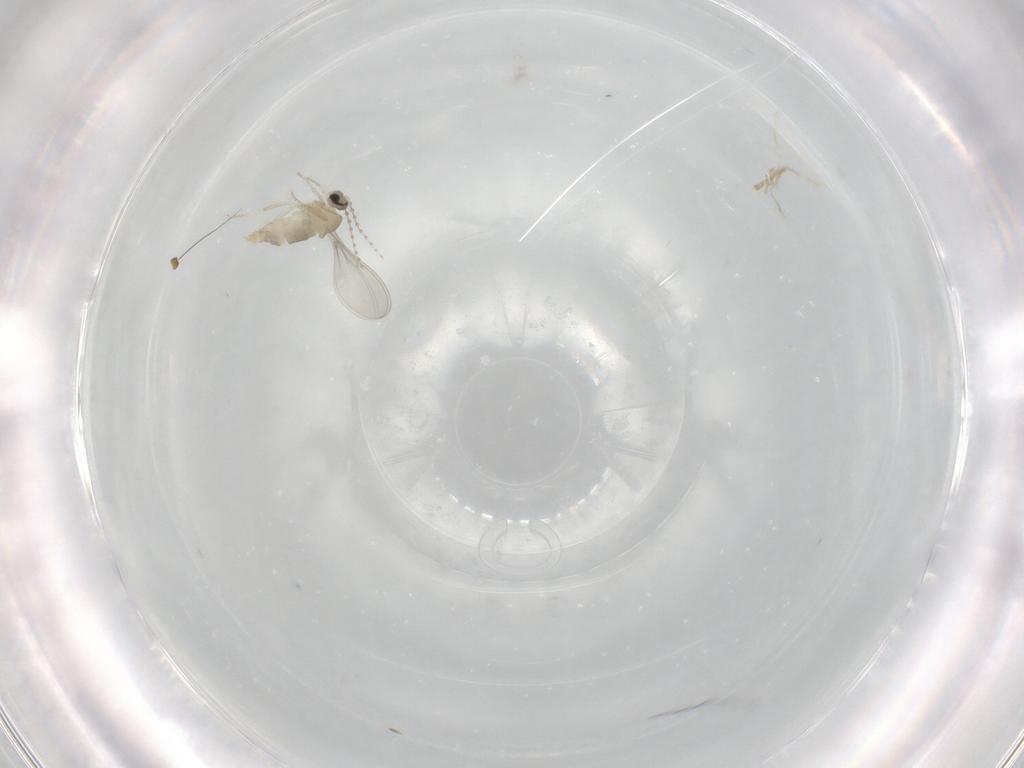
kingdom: Animalia
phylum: Arthropoda
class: Insecta
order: Diptera
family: Dolichopodidae
